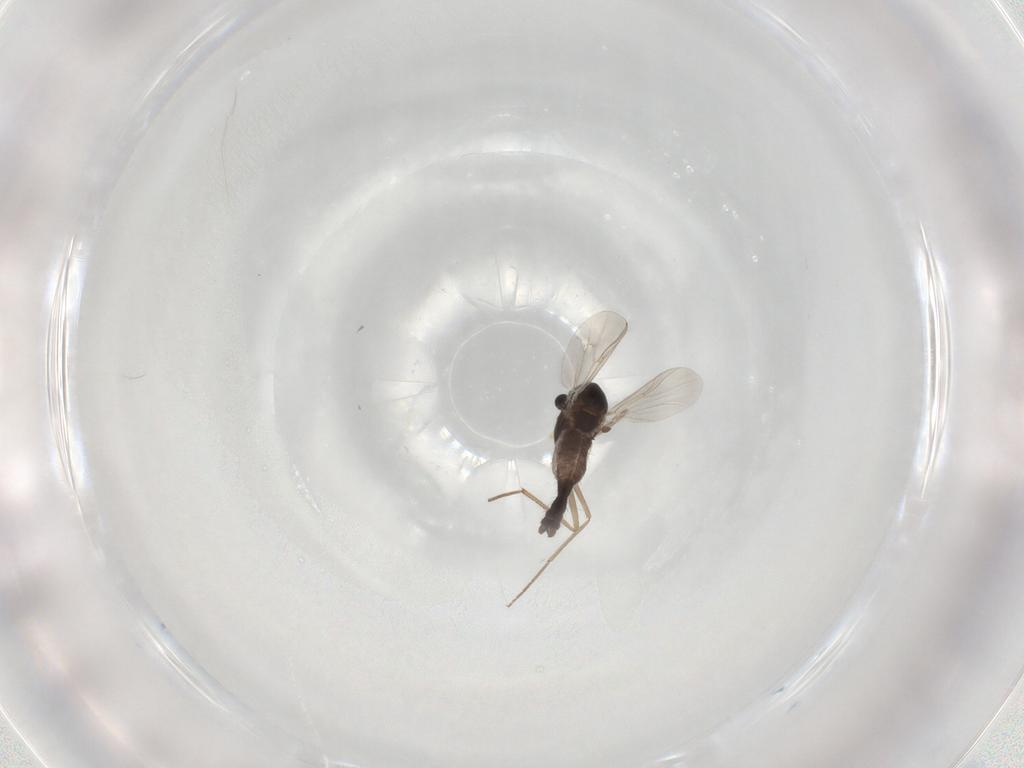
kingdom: Animalia
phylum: Arthropoda
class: Insecta
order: Diptera
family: Chironomidae
